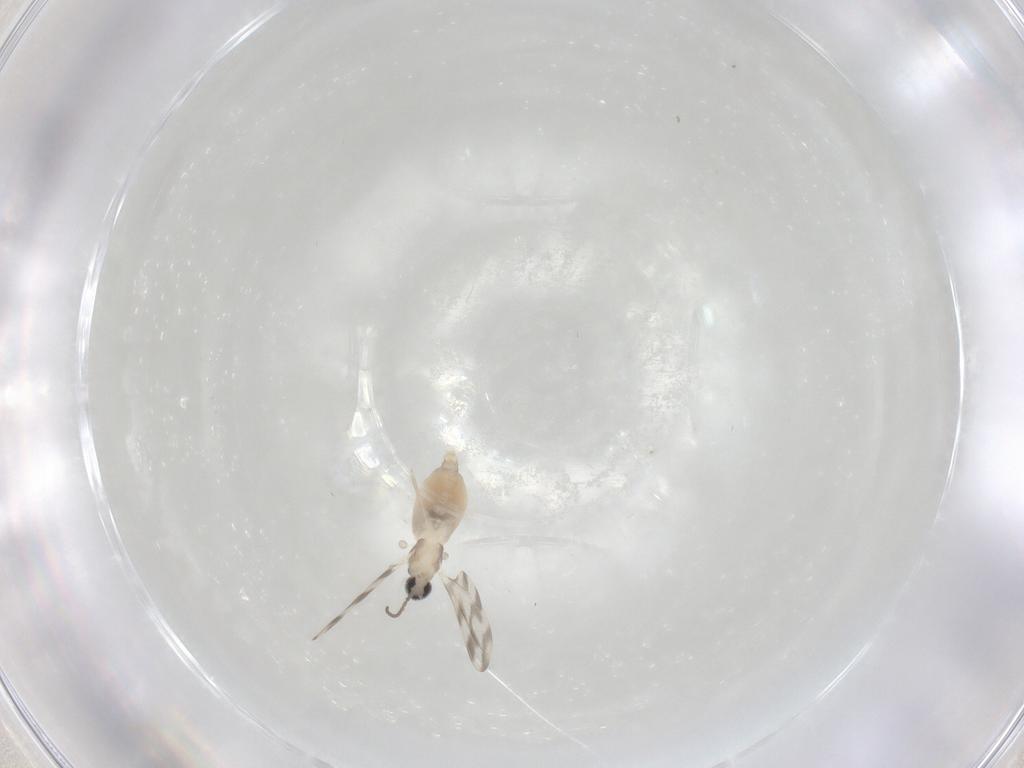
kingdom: Animalia
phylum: Arthropoda
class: Insecta
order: Diptera
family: Cecidomyiidae
